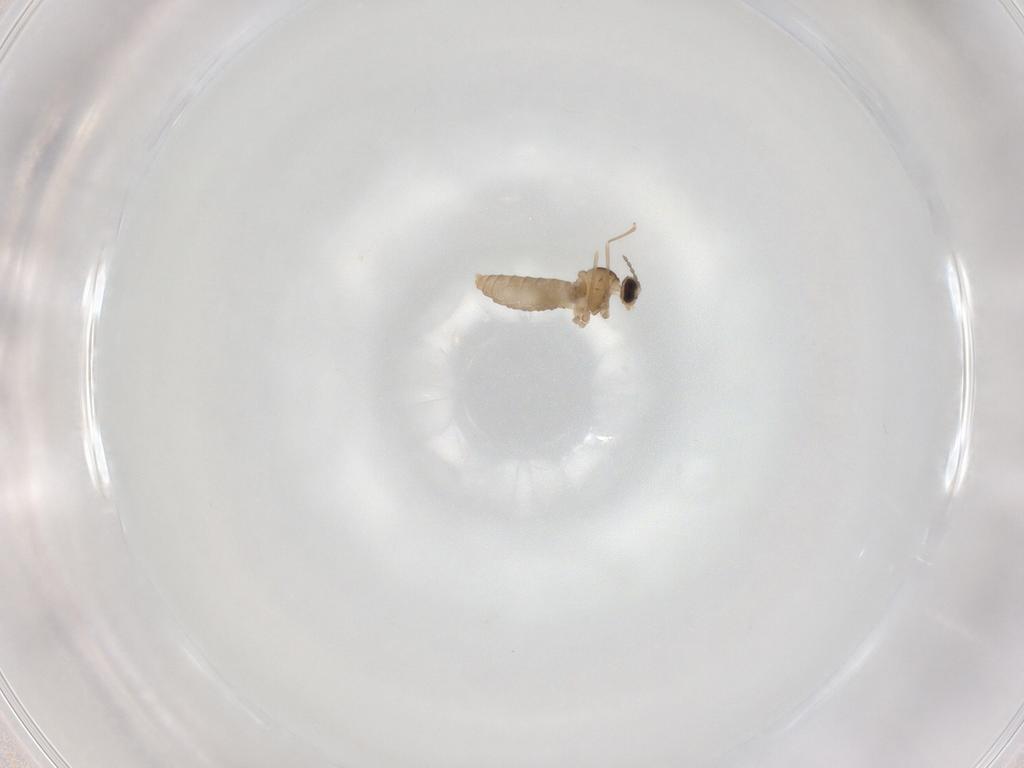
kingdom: Animalia
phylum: Arthropoda
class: Insecta
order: Diptera
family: Cecidomyiidae
